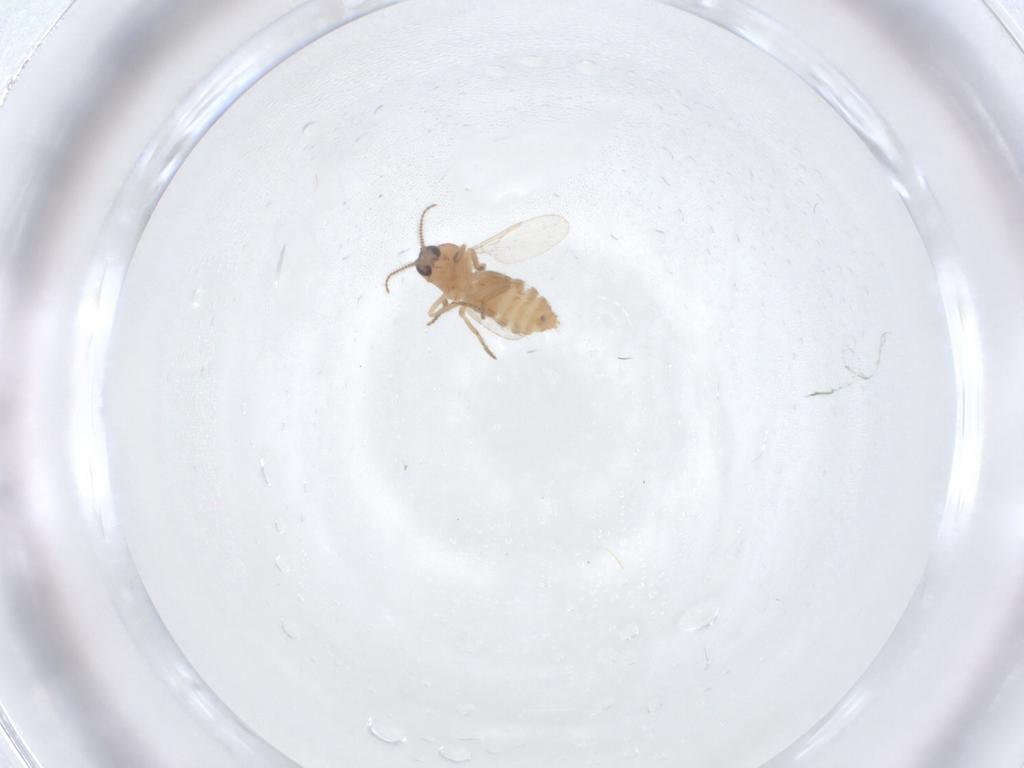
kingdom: Animalia
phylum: Arthropoda
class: Insecta
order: Diptera
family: Ceratopogonidae
